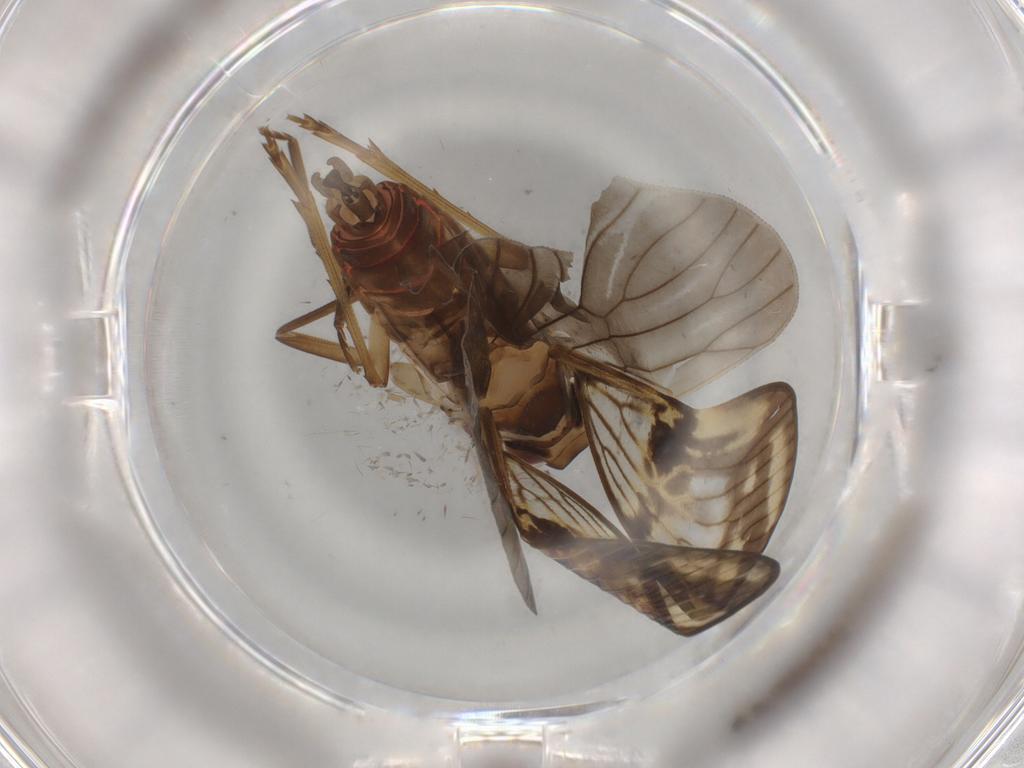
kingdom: Animalia
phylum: Arthropoda
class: Insecta
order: Hemiptera
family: Cixiidae
